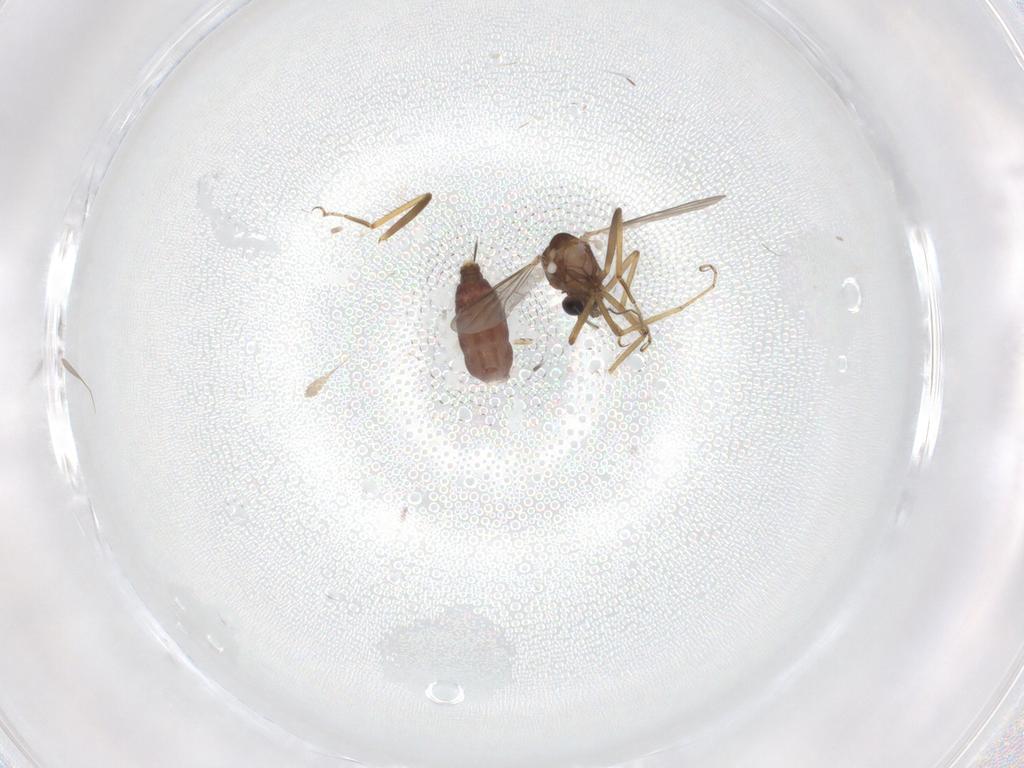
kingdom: Animalia
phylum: Arthropoda
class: Insecta
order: Diptera
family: Ceratopogonidae
